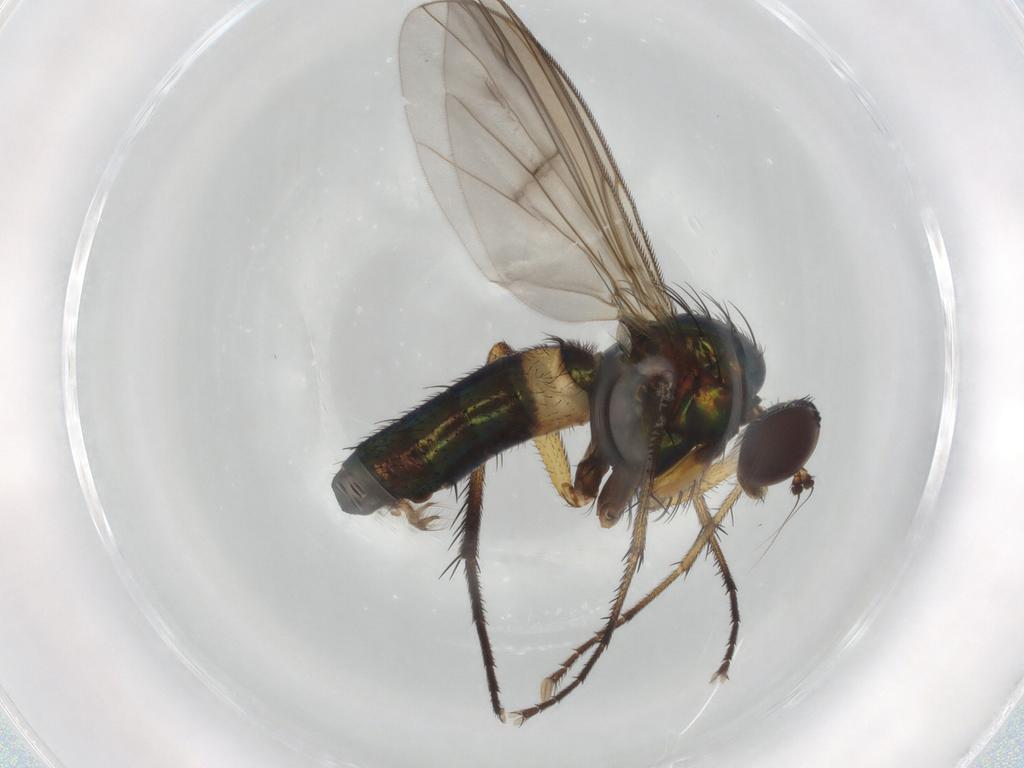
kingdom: Animalia
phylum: Arthropoda
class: Insecta
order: Diptera
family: Dolichopodidae
